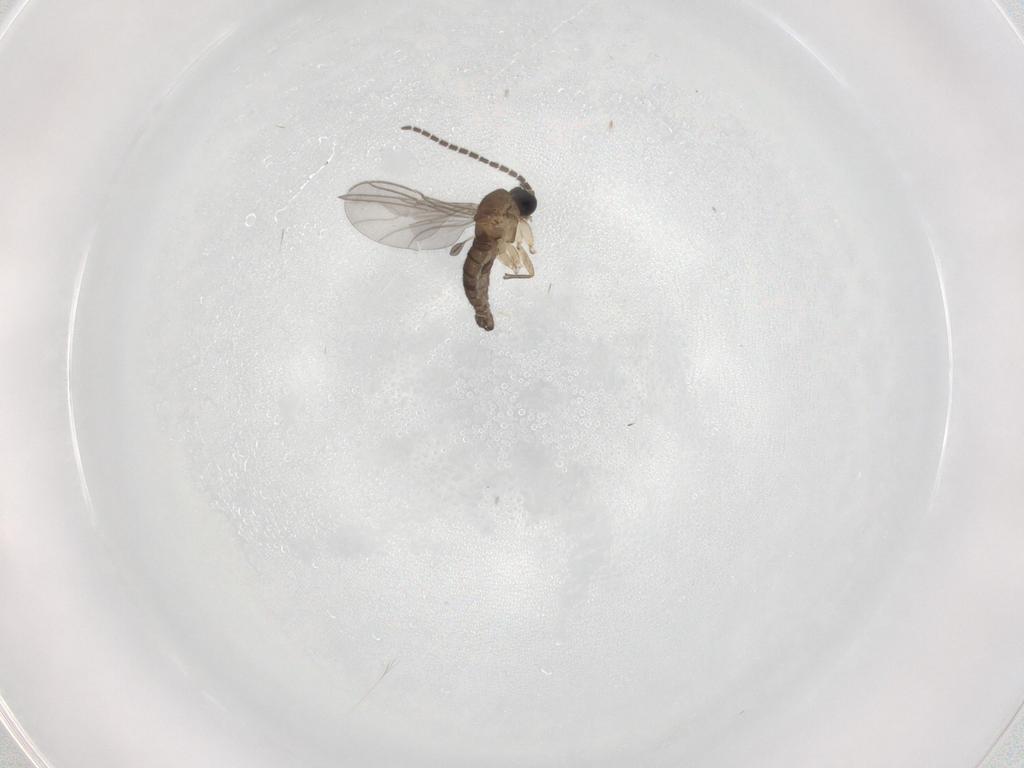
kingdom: Animalia
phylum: Arthropoda
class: Insecta
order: Diptera
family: Sciaridae
